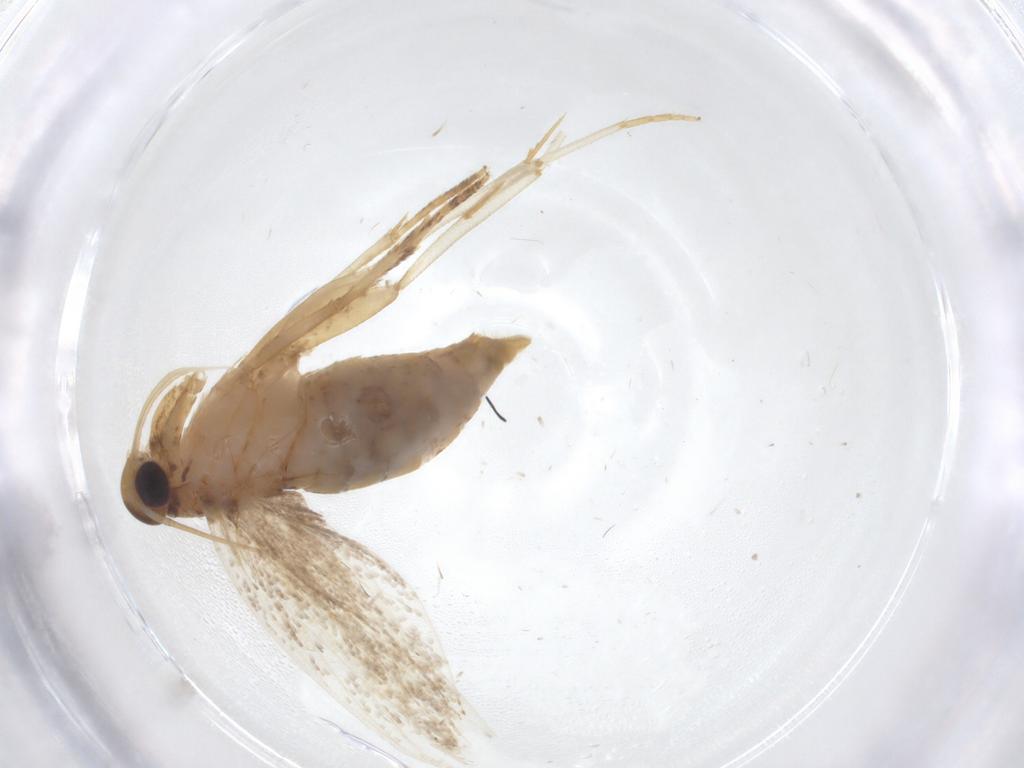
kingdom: Animalia
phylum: Arthropoda
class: Insecta
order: Lepidoptera
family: Oecophoridae
